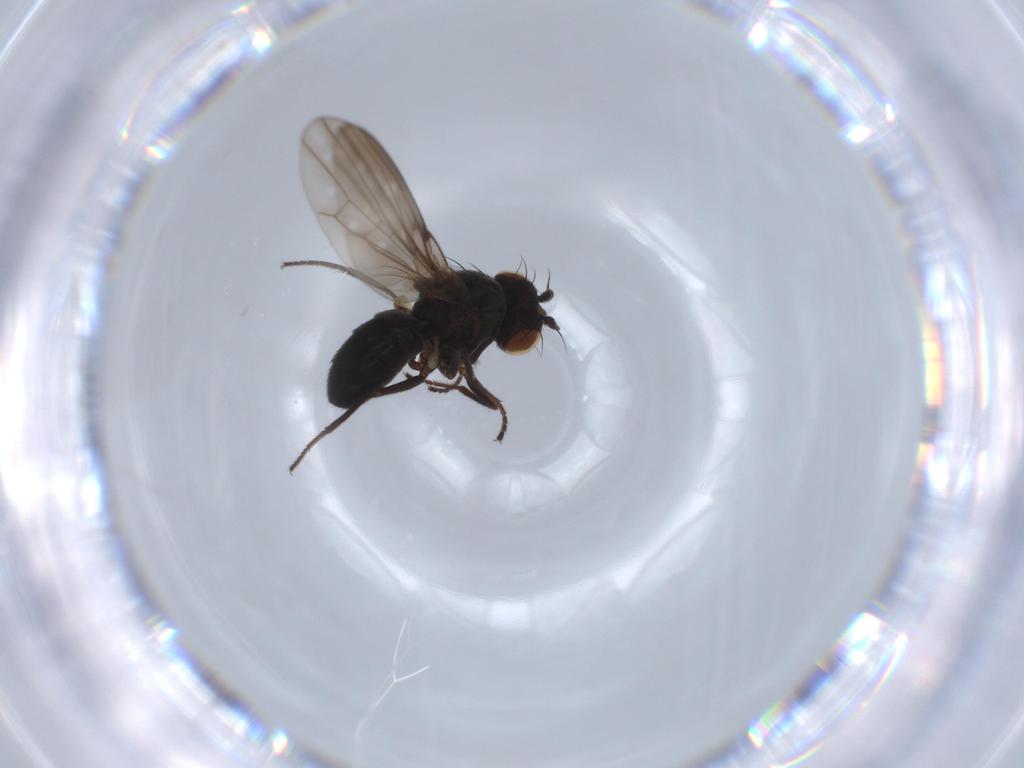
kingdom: Animalia
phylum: Arthropoda
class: Insecta
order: Diptera
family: Ephydridae
